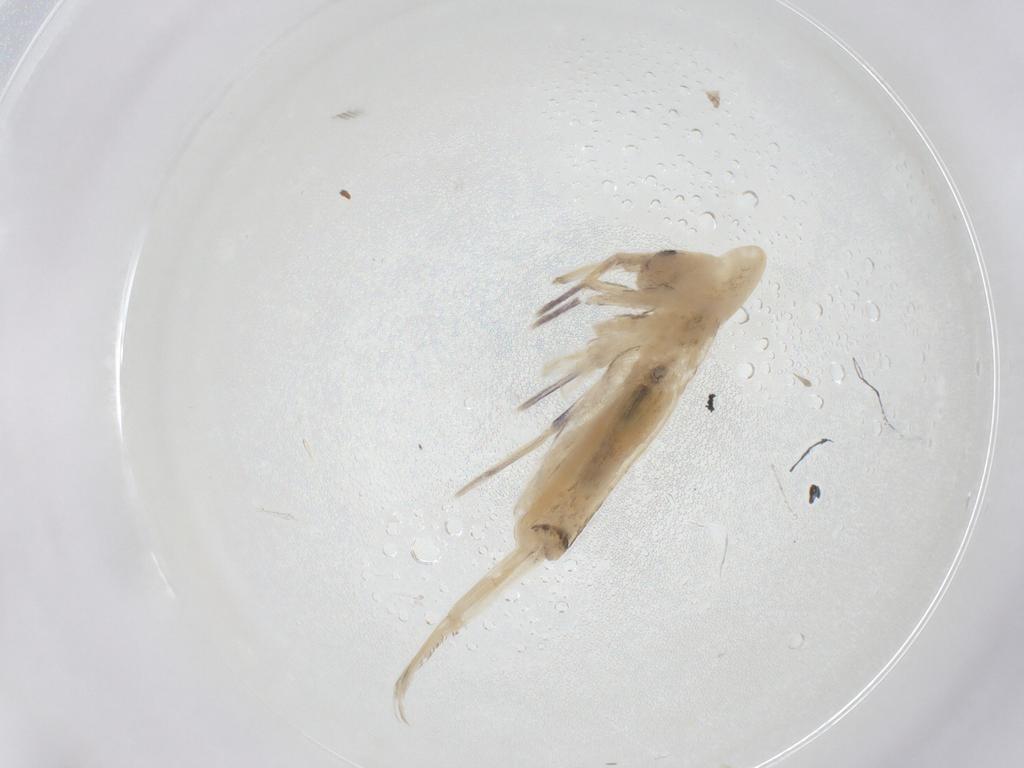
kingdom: Animalia
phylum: Arthropoda
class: Collembola
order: Entomobryomorpha
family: Entomobryidae
